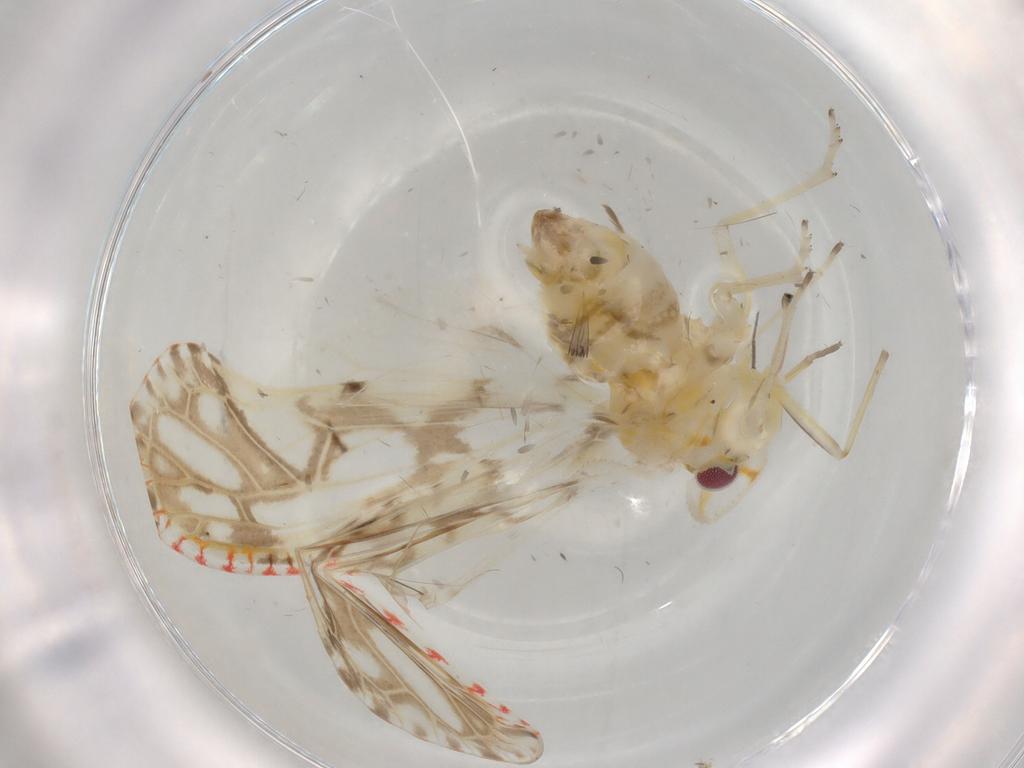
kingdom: Animalia
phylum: Arthropoda
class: Insecta
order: Hemiptera
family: Derbidae
